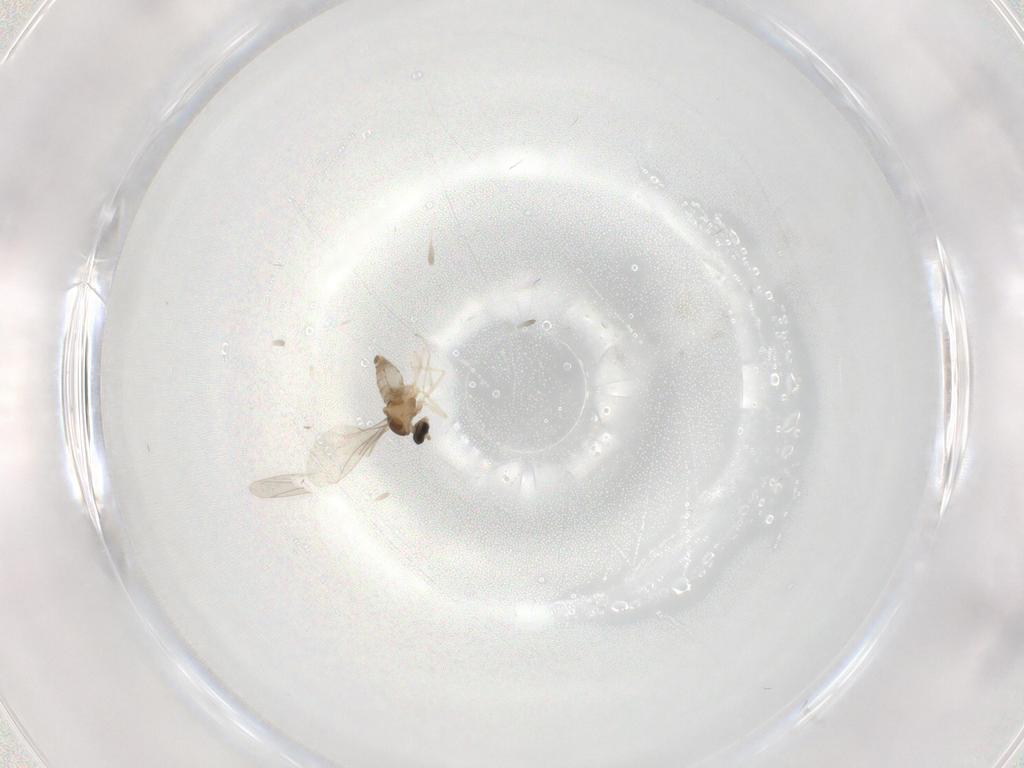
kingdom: Animalia
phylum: Arthropoda
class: Insecta
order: Diptera
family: Cecidomyiidae
